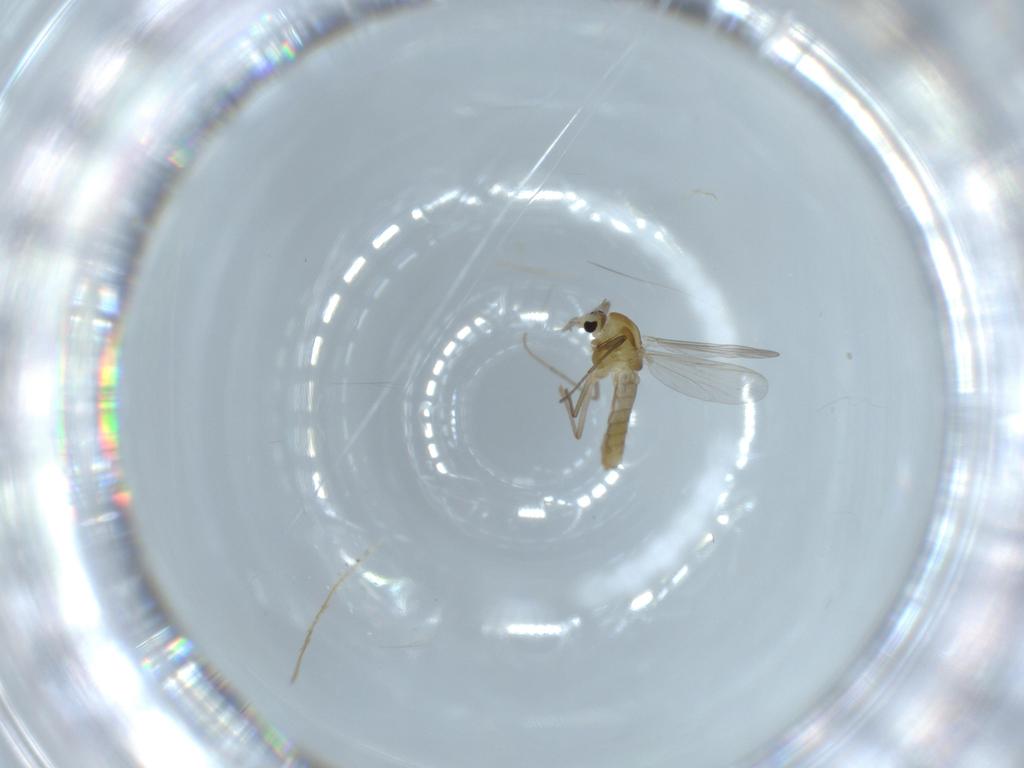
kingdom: Animalia
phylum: Arthropoda
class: Insecta
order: Diptera
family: Chironomidae
